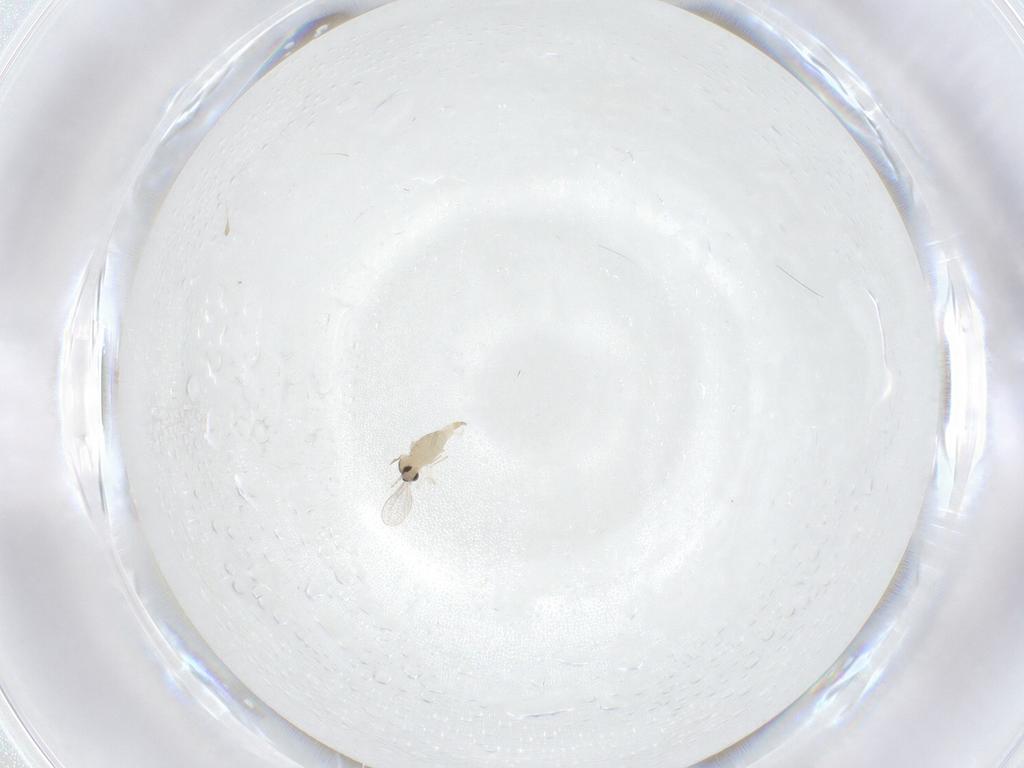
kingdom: Animalia
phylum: Arthropoda
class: Insecta
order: Diptera
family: Cecidomyiidae
